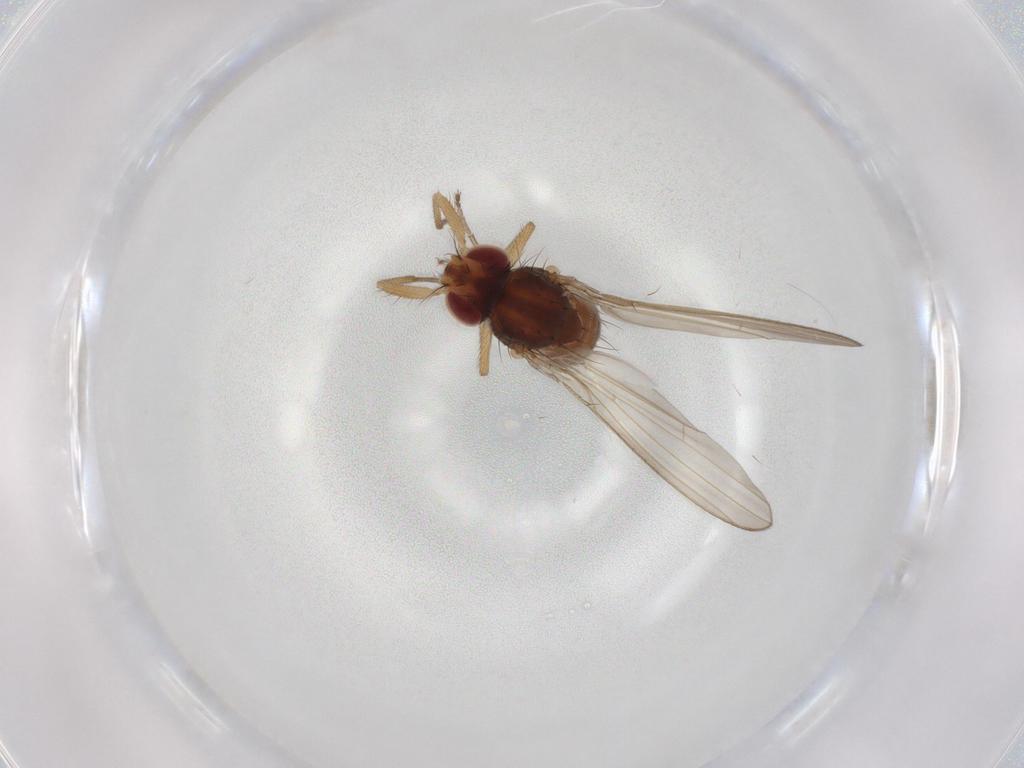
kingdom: Animalia
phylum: Arthropoda
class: Insecta
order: Diptera
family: Drosophilidae
